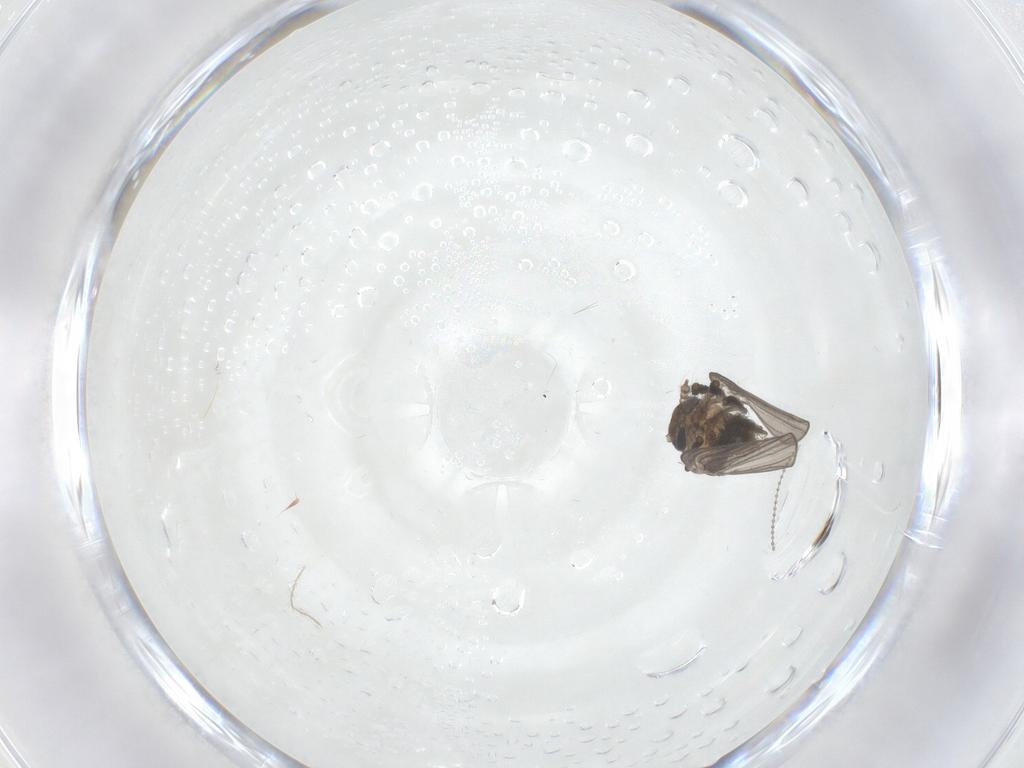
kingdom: Animalia
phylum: Arthropoda
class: Insecta
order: Diptera
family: Psychodidae
